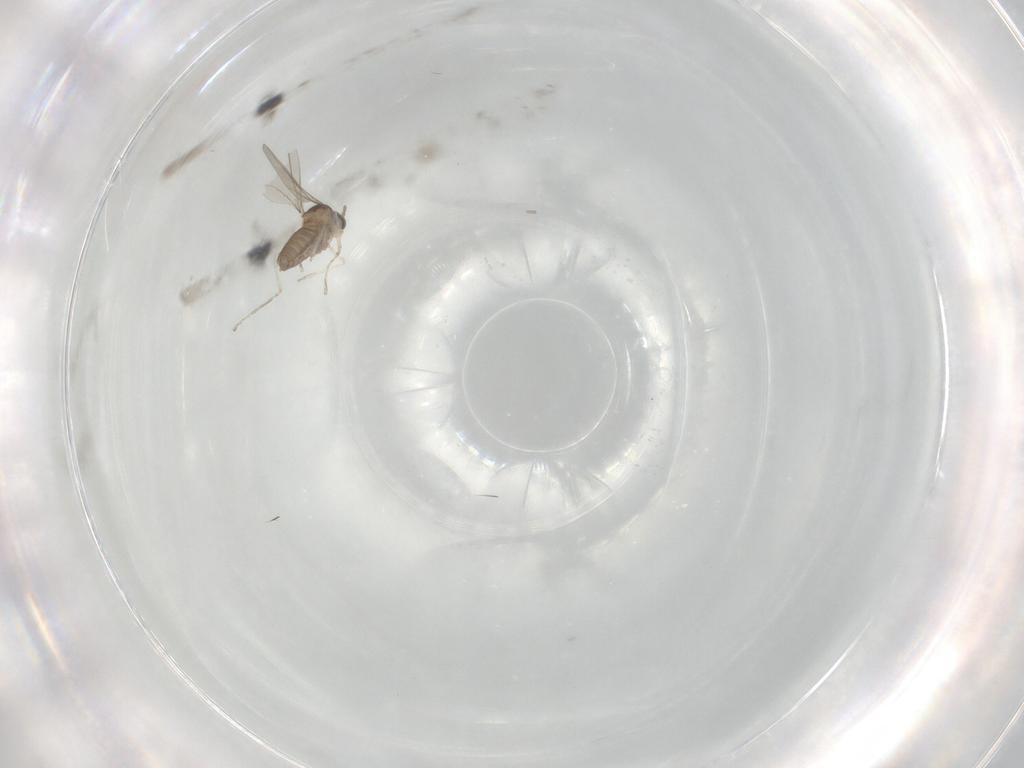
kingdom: Animalia
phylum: Arthropoda
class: Insecta
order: Diptera
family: Cecidomyiidae
